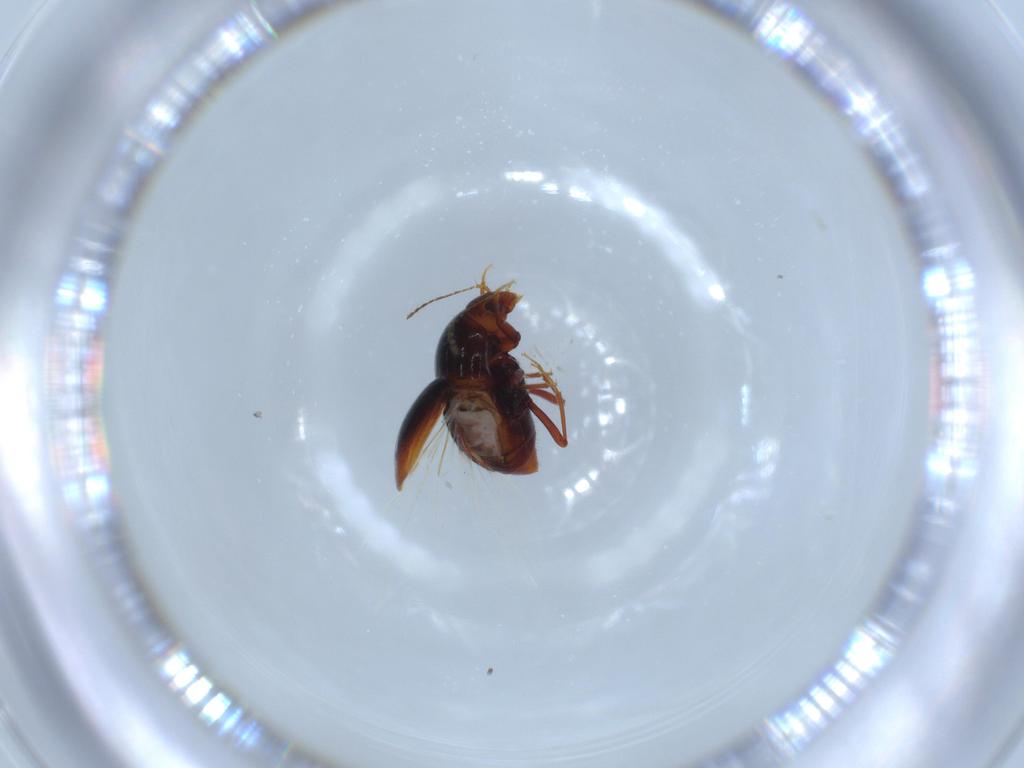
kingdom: Animalia
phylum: Arthropoda
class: Insecta
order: Coleoptera
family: Staphylinidae
